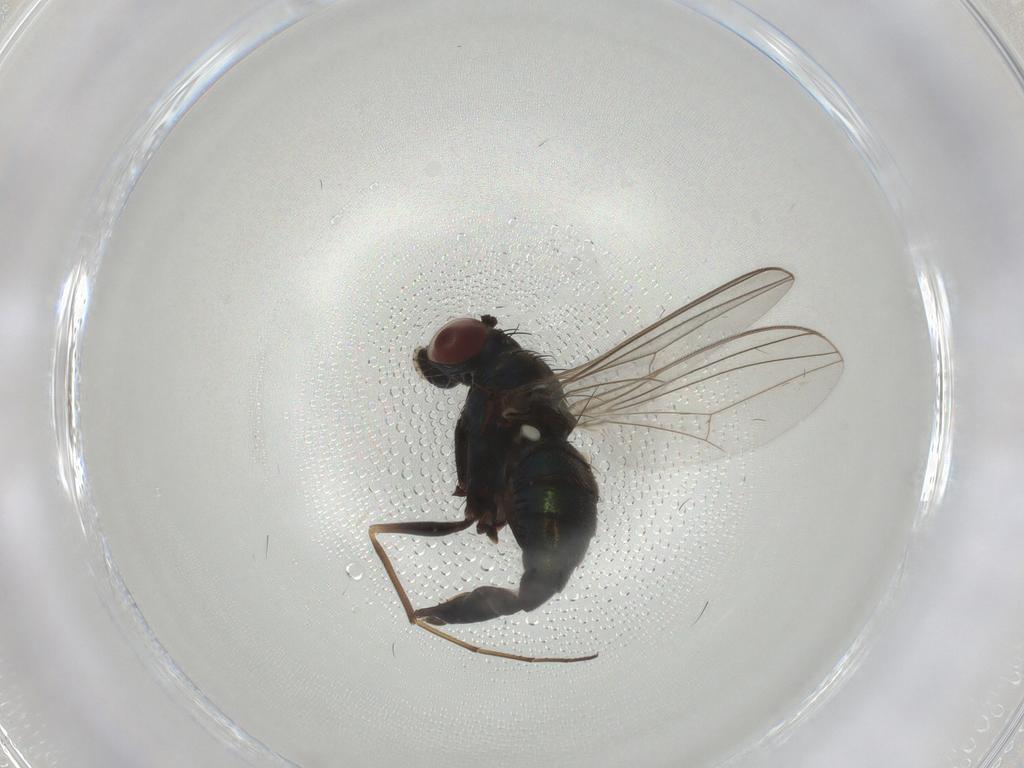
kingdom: Animalia
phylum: Arthropoda
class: Insecta
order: Diptera
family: Dolichopodidae
